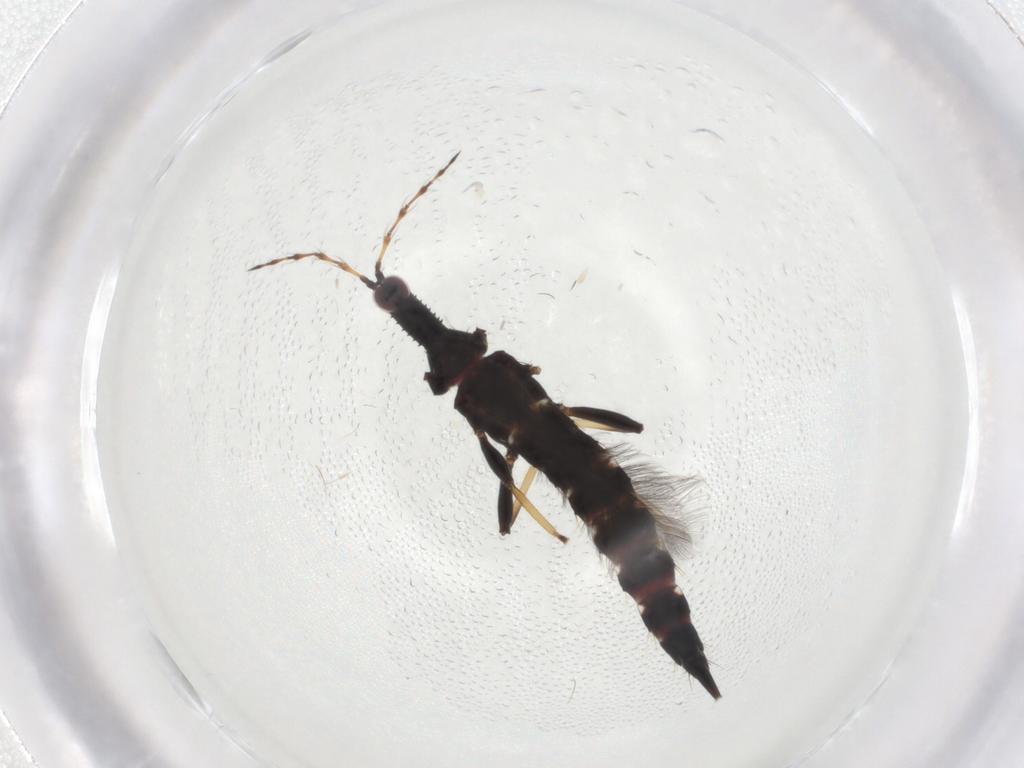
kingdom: Animalia
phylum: Arthropoda
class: Insecta
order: Thysanoptera
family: Phlaeothripidae
